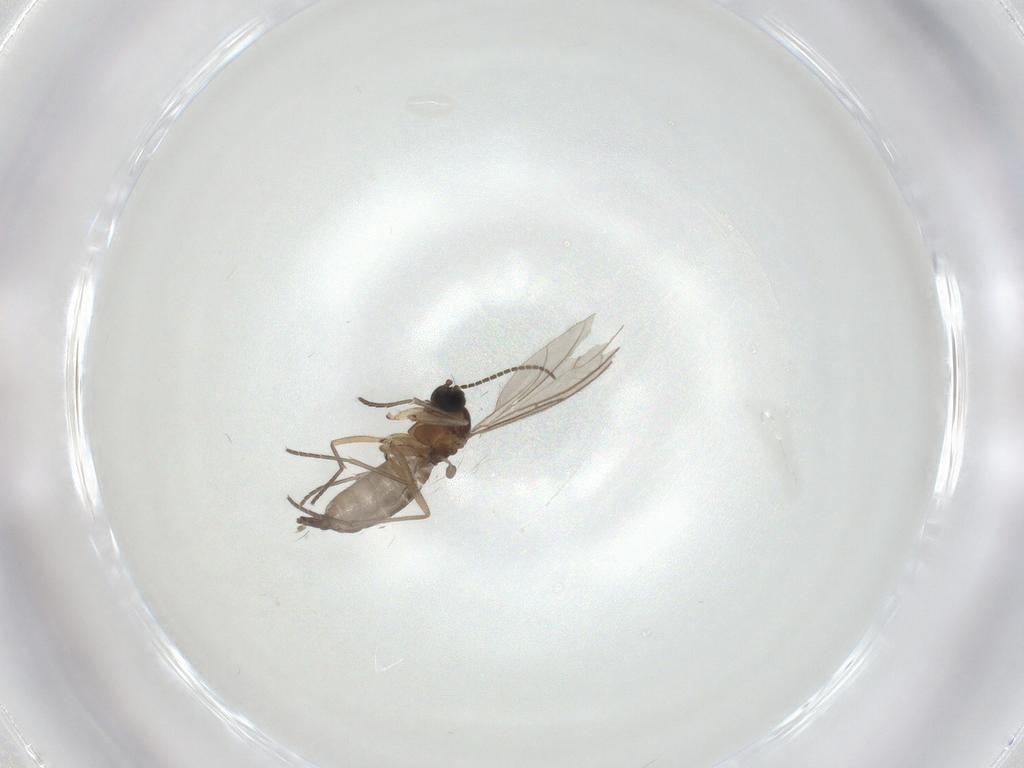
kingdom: Animalia
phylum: Arthropoda
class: Insecta
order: Diptera
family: Sciaridae
